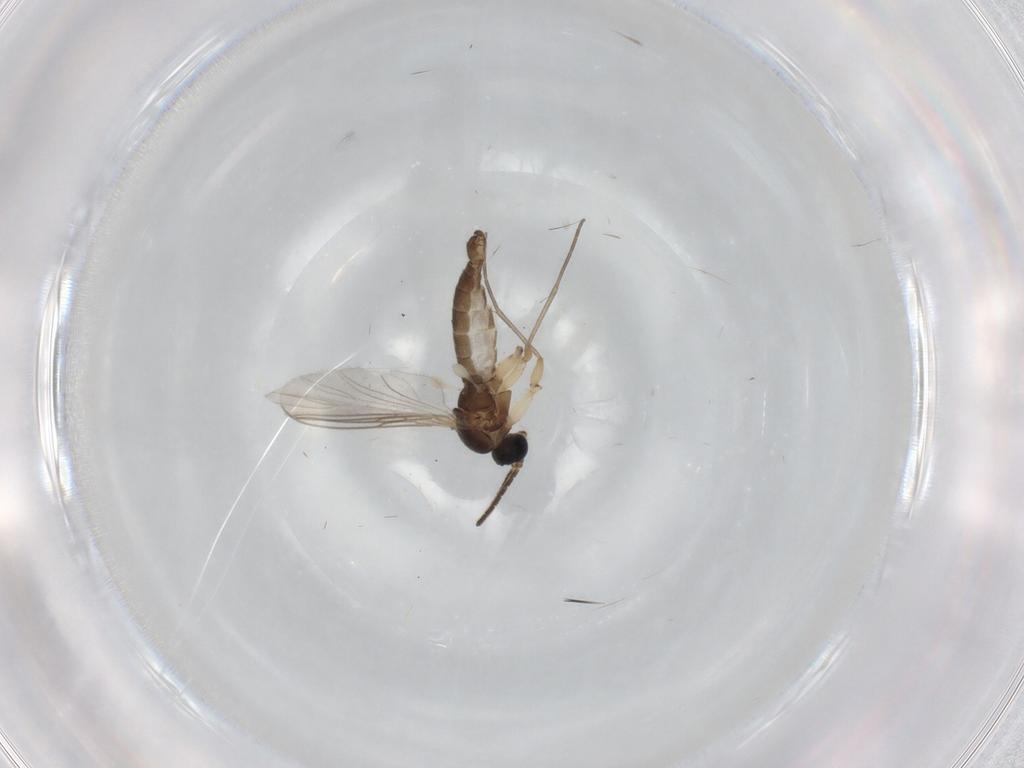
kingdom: Animalia
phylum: Arthropoda
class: Insecta
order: Diptera
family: Sciaridae
